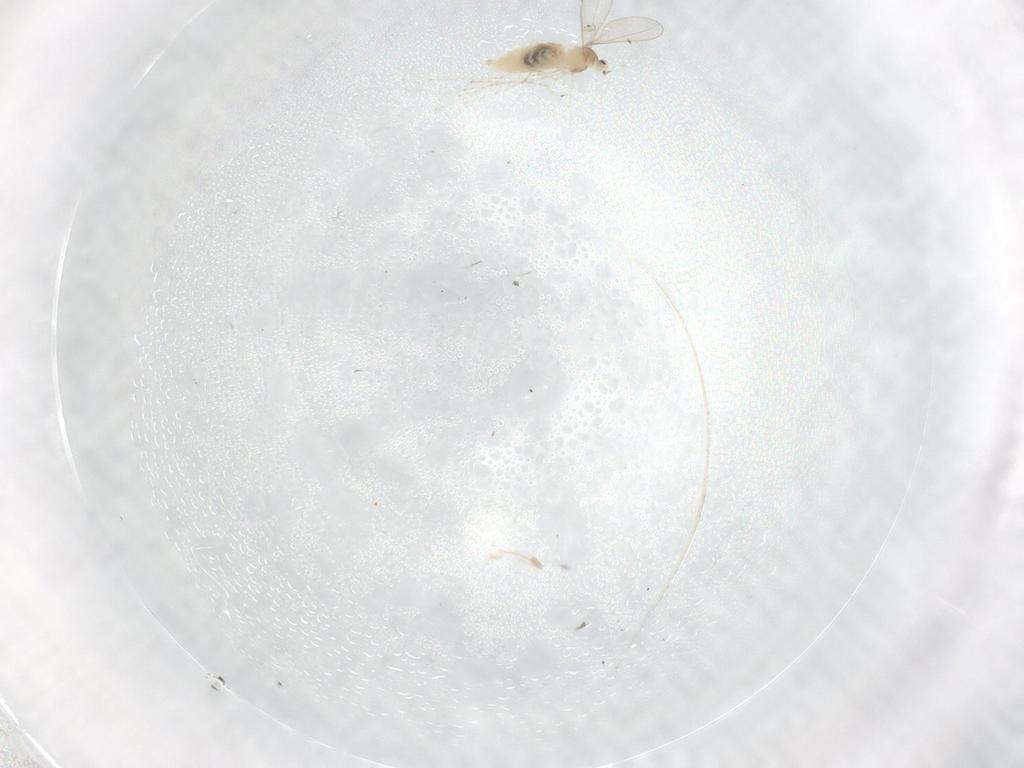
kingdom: Animalia
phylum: Arthropoda
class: Insecta
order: Diptera
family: Cecidomyiidae
